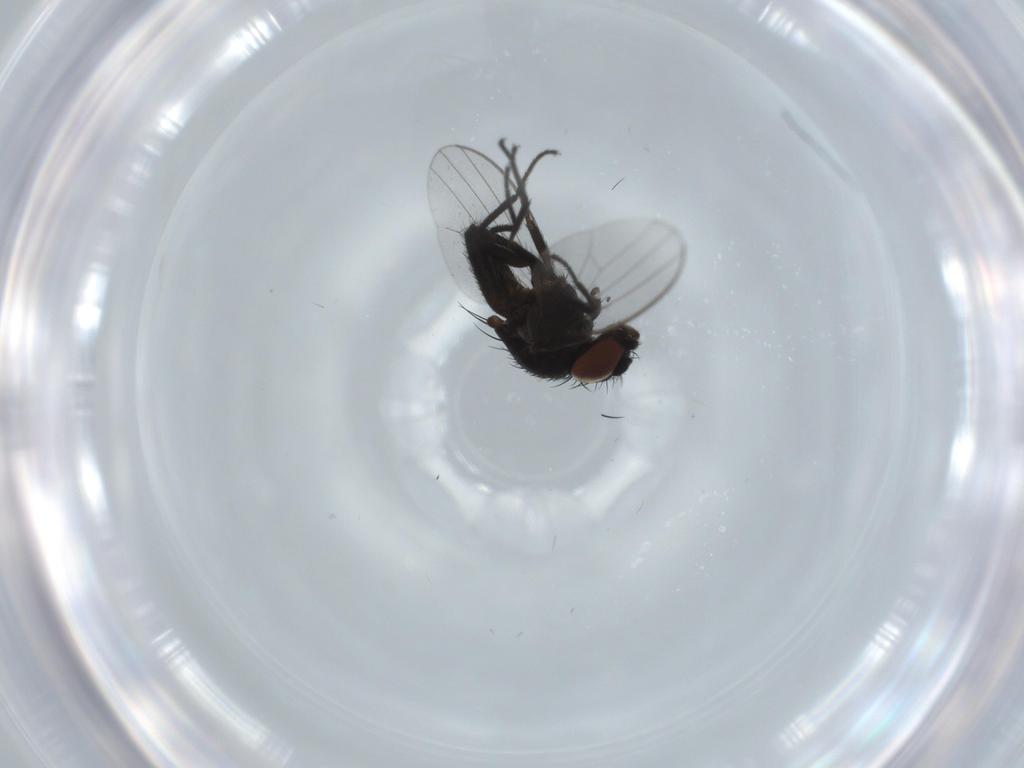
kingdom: Animalia
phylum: Arthropoda
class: Insecta
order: Diptera
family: Milichiidae
